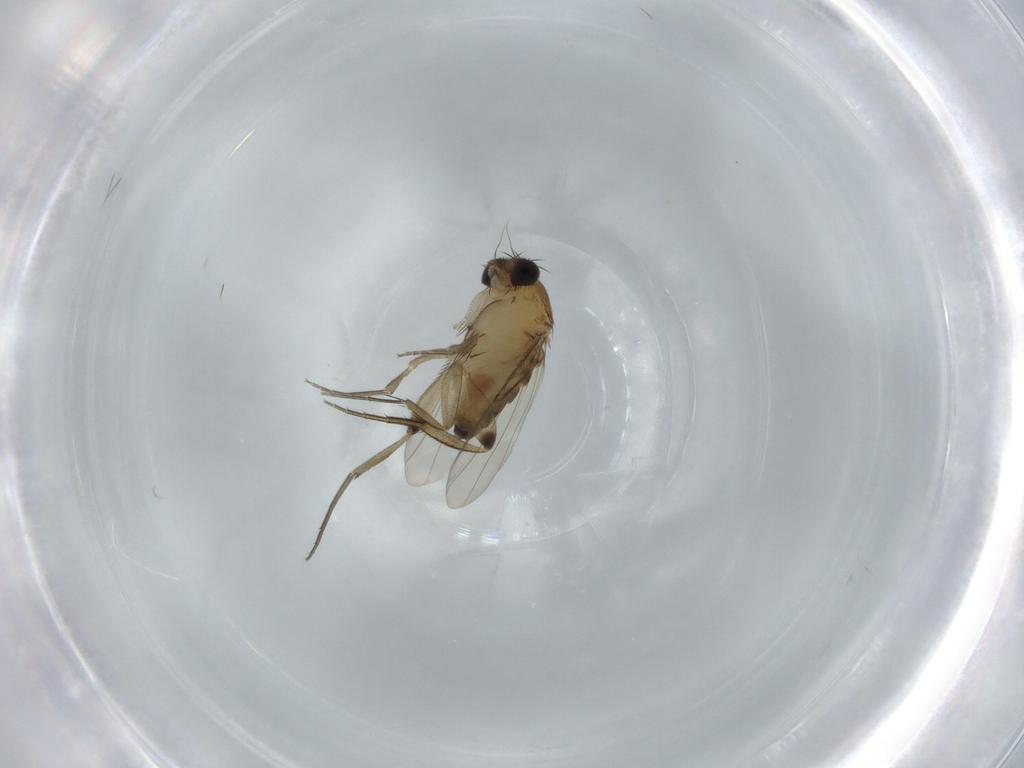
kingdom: Animalia
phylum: Arthropoda
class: Insecta
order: Diptera
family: Phoridae
